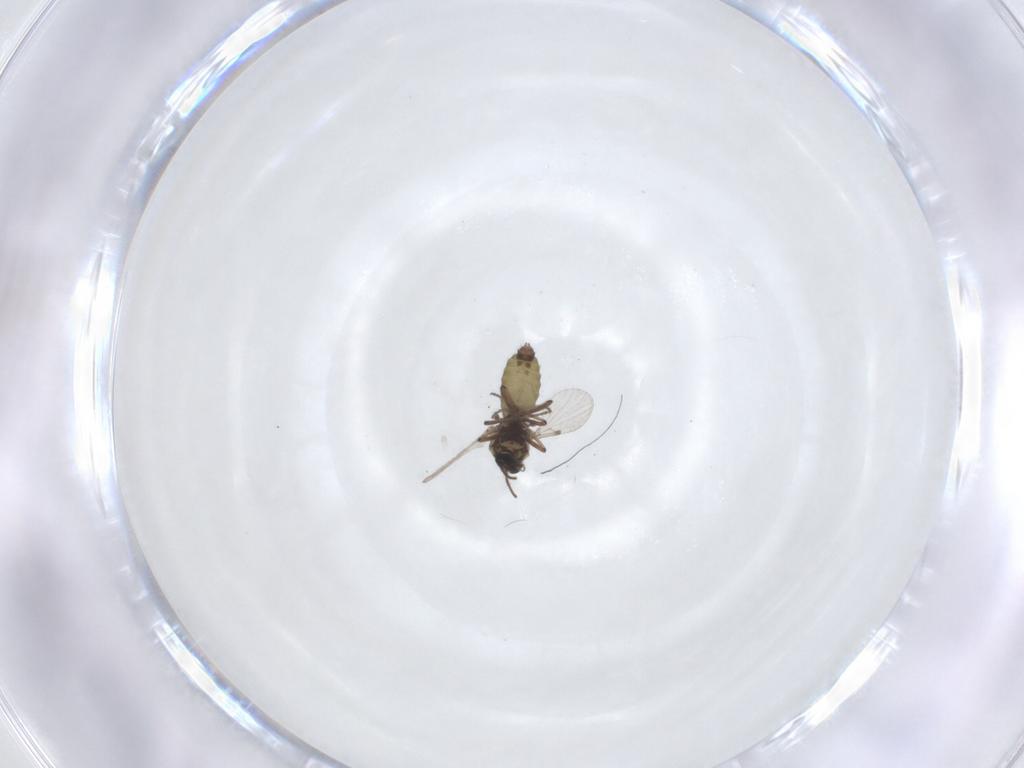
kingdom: Animalia
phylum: Arthropoda
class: Insecta
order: Diptera
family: Ceratopogonidae
